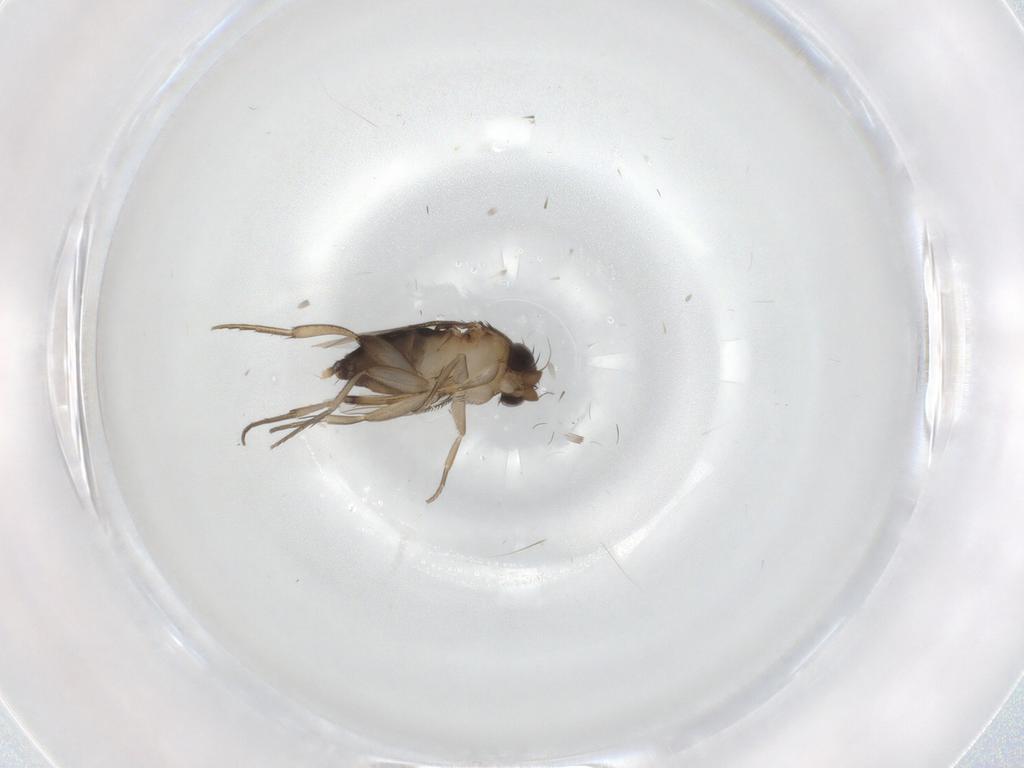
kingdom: Animalia
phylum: Arthropoda
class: Insecta
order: Diptera
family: Phoridae
